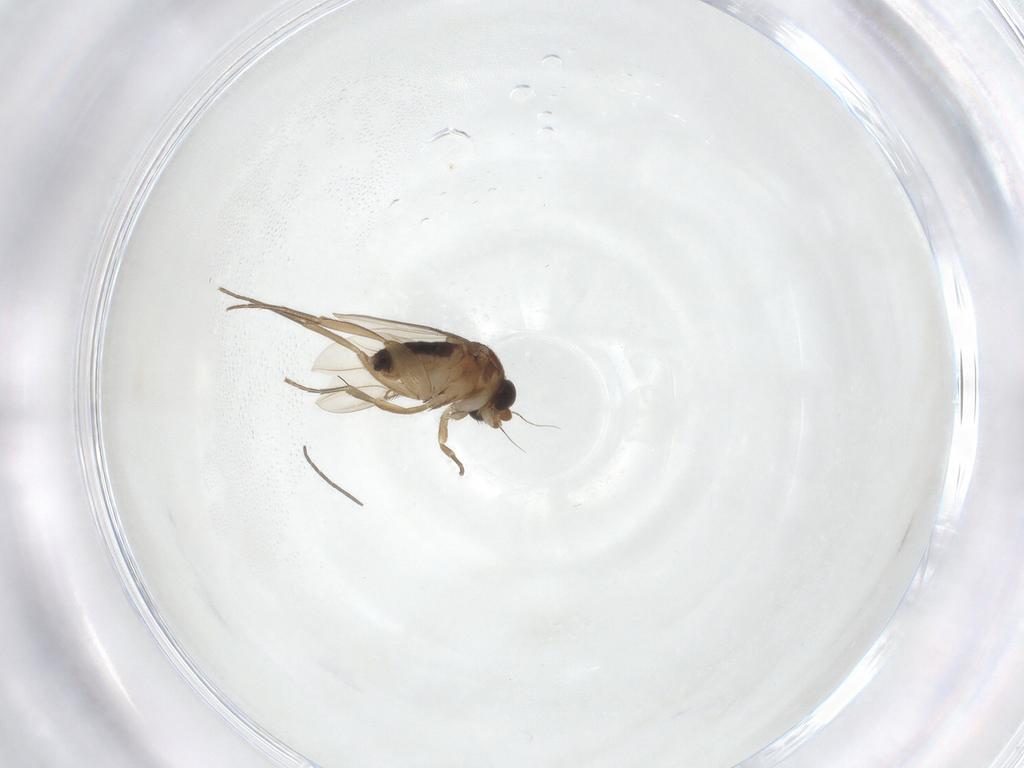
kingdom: Animalia
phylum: Arthropoda
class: Insecta
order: Diptera
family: Phoridae
